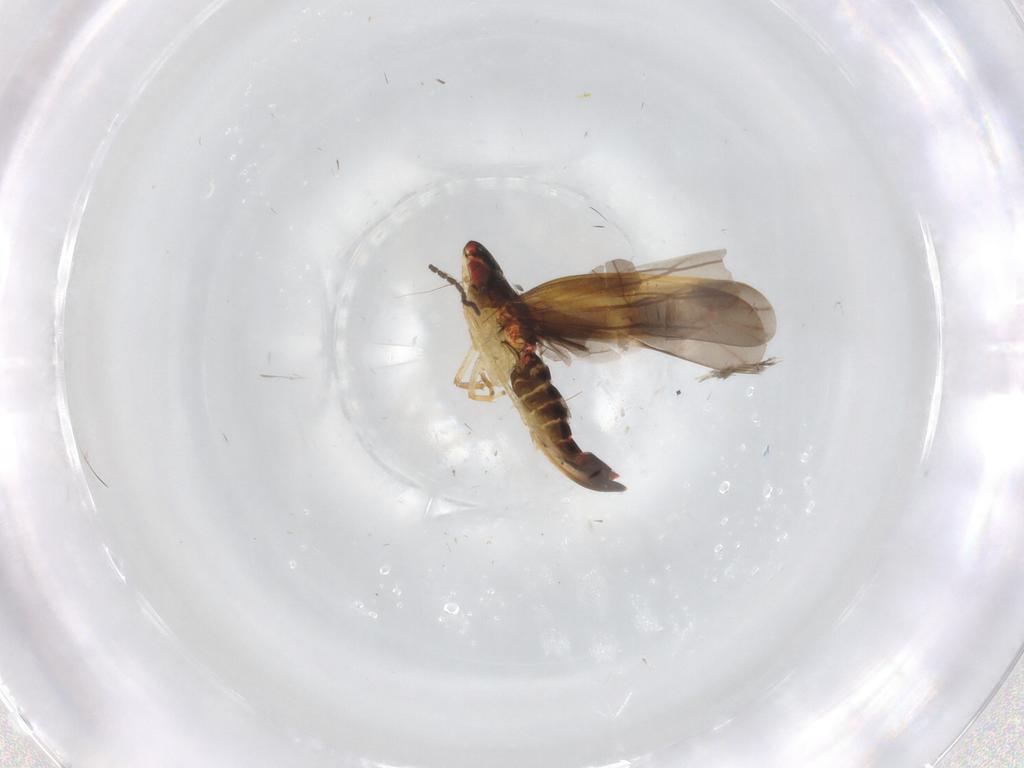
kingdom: Animalia
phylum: Arthropoda
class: Insecta
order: Hemiptera
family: Cicadellidae
